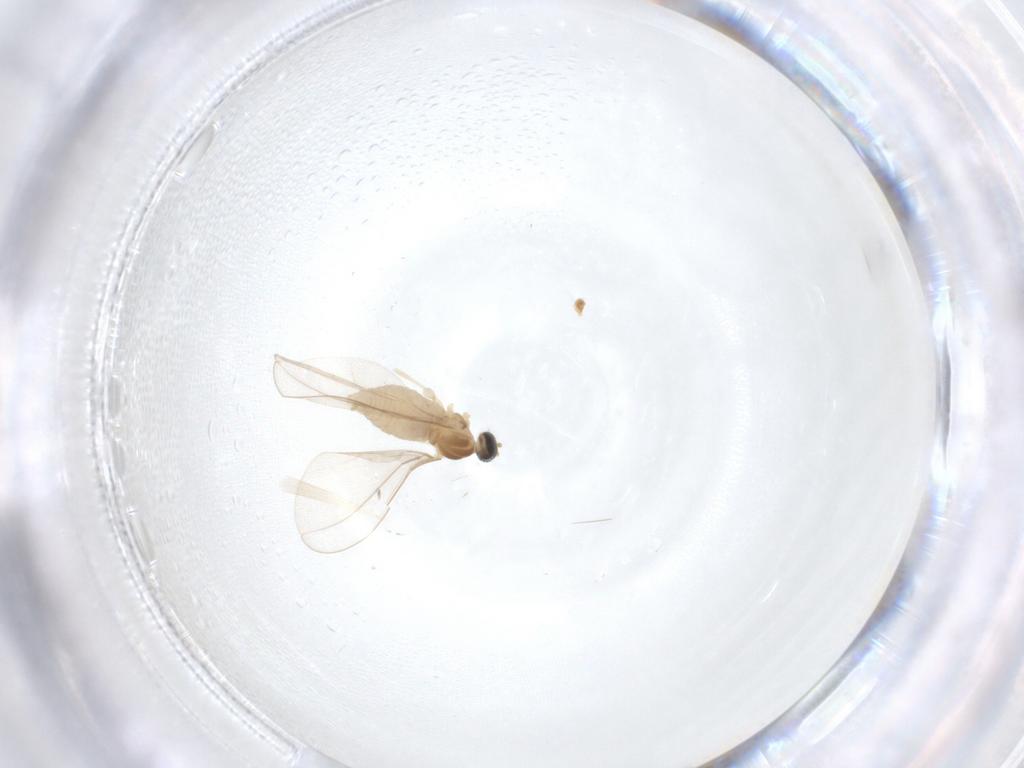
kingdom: Animalia
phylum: Arthropoda
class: Insecta
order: Diptera
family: Cecidomyiidae
